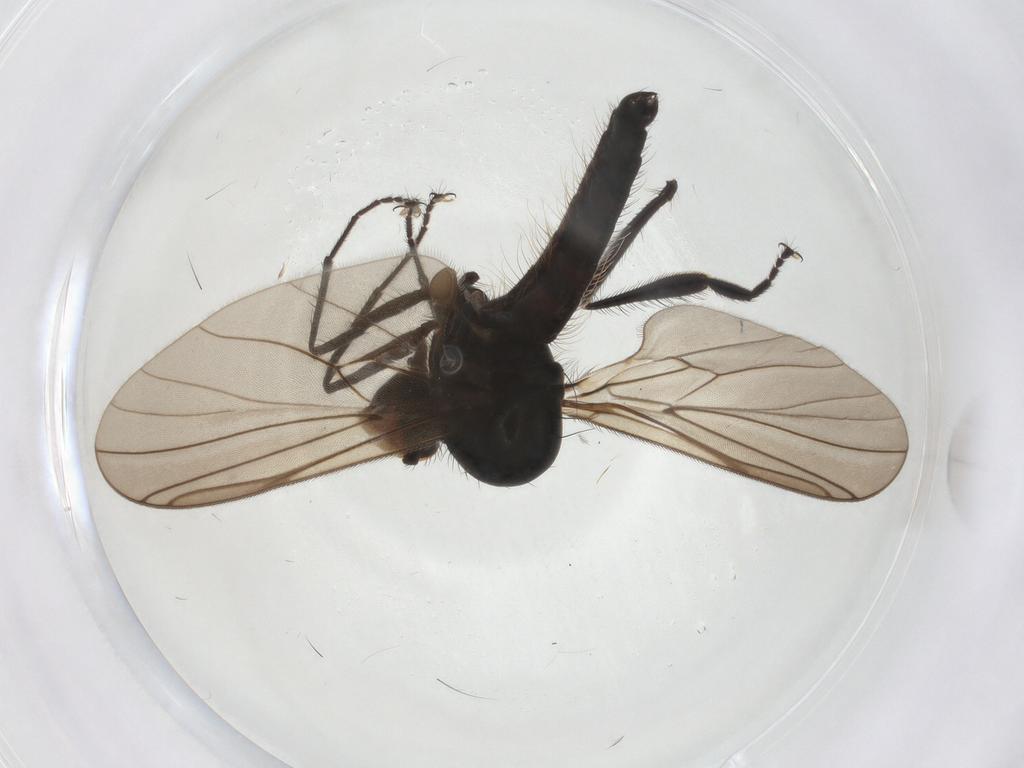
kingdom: Animalia
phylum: Arthropoda
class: Insecta
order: Diptera
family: Hybotidae
